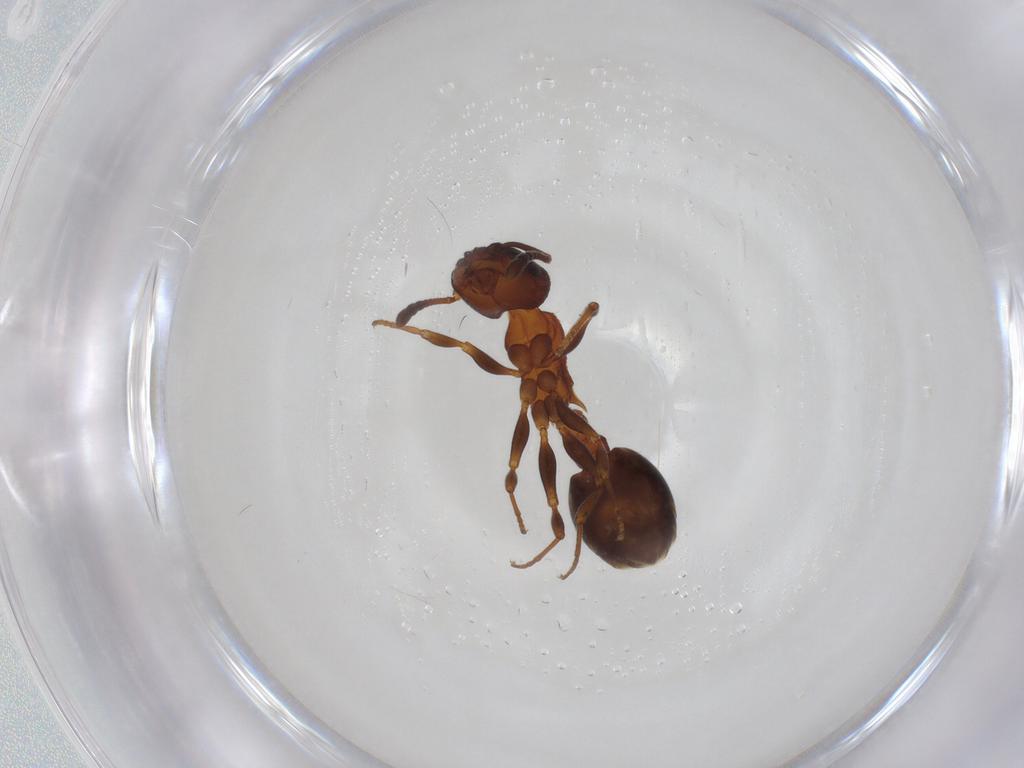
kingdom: Animalia
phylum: Arthropoda
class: Insecta
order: Hymenoptera
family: Formicidae
